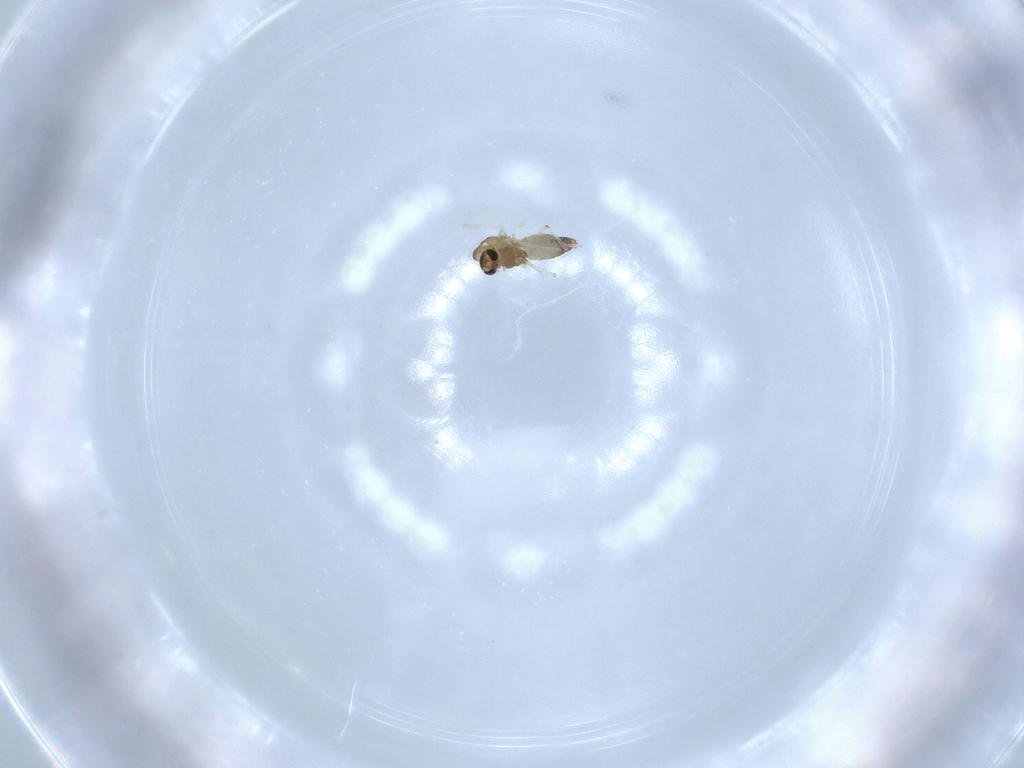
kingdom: Animalia
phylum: Arthropoda
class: Insecta
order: Diptera
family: Chironomidae
